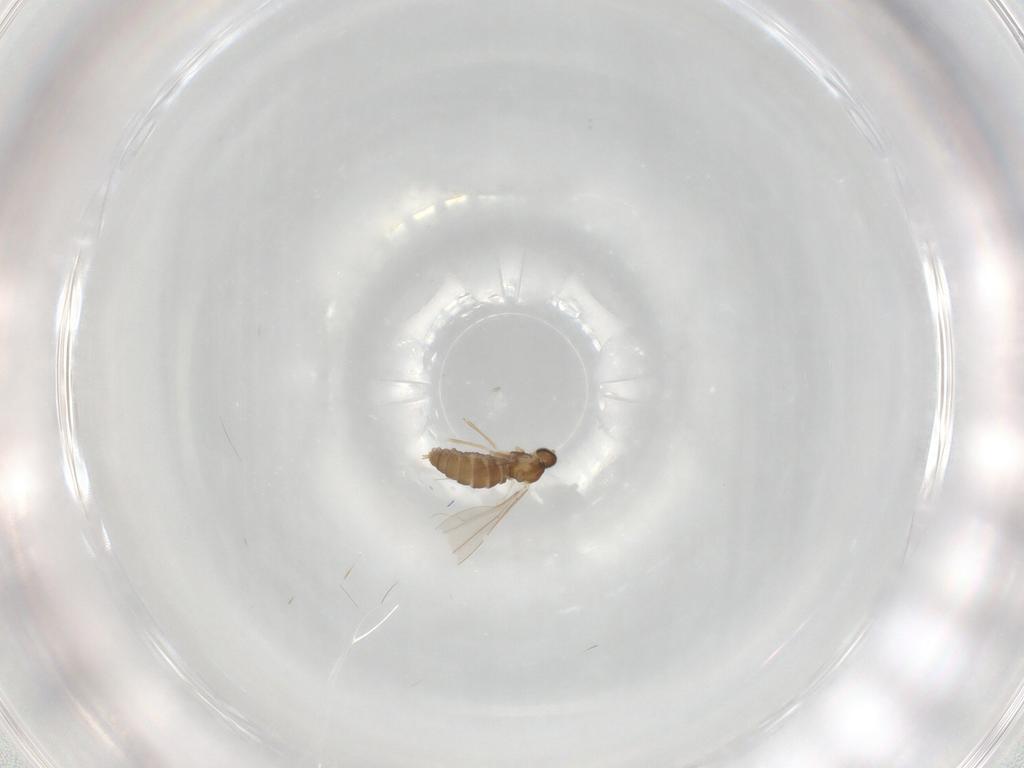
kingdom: Animalia
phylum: Arthropoda
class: Insecta
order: Diptera
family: Cecidomyiidae
